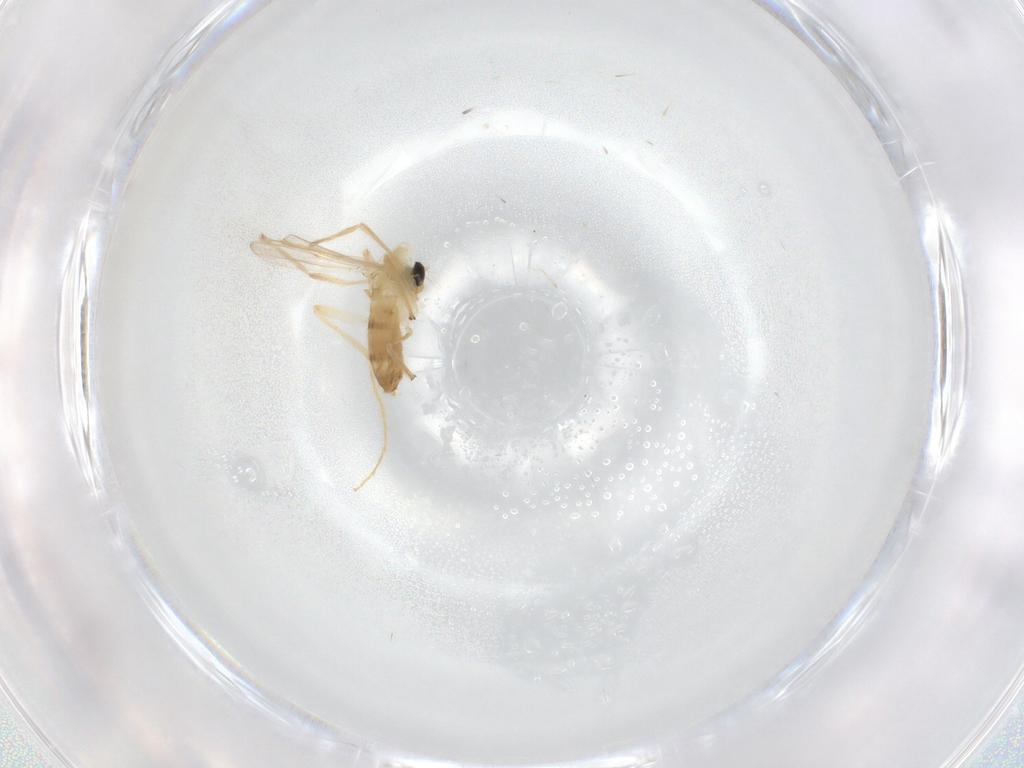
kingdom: Animalia
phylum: Arthropoda
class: Insecta
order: Diptera
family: Chironomidae
